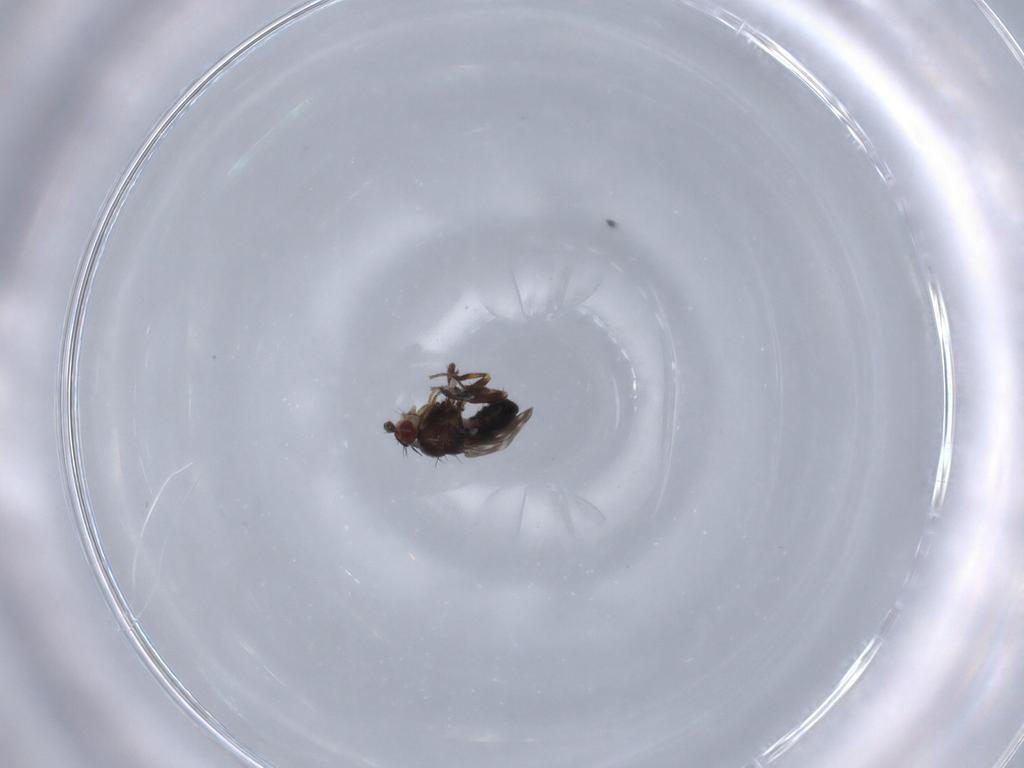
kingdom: Animalia
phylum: Arthropoda
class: Insecta
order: Diptera
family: Sphaeroceridae
